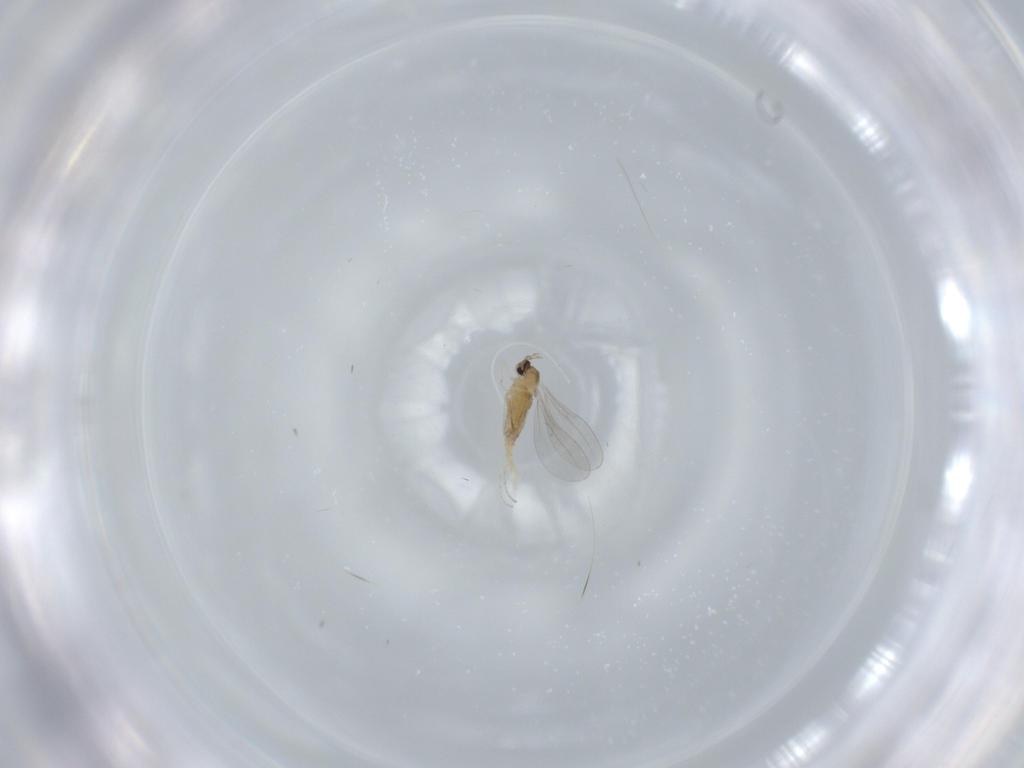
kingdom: Animalia
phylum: Arthropoda
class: Insecta
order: Diptera
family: Cecidomyiidae
